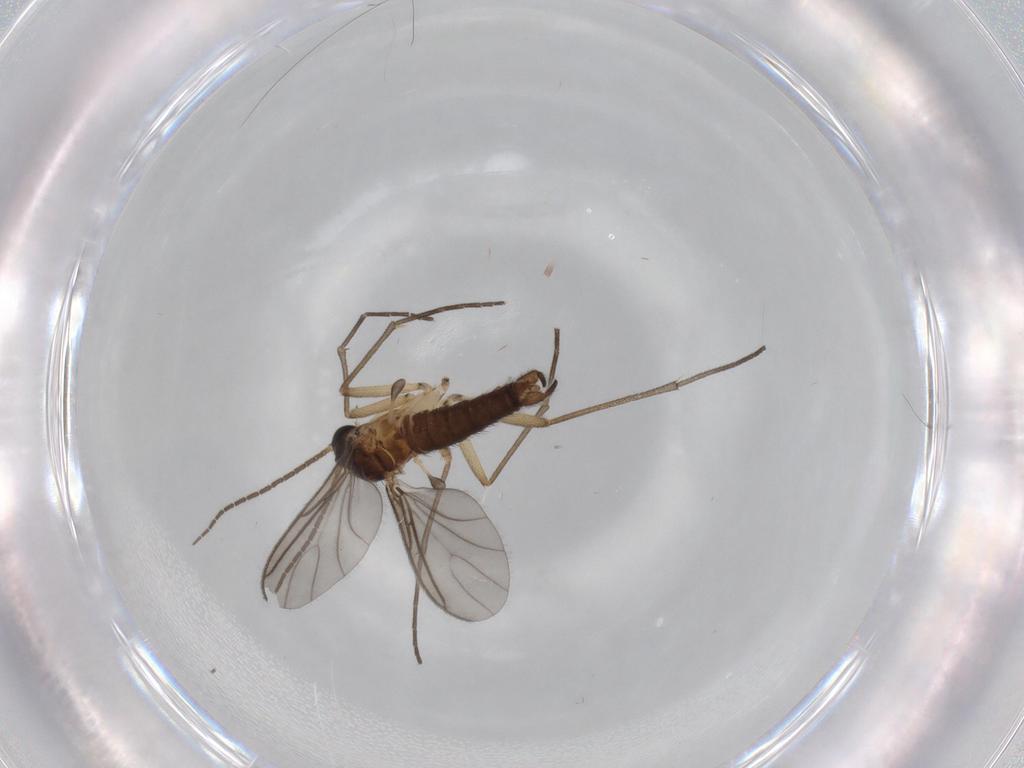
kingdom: Animalia
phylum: Arthropoda
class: Insecta
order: Diptera
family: Sciaridae
